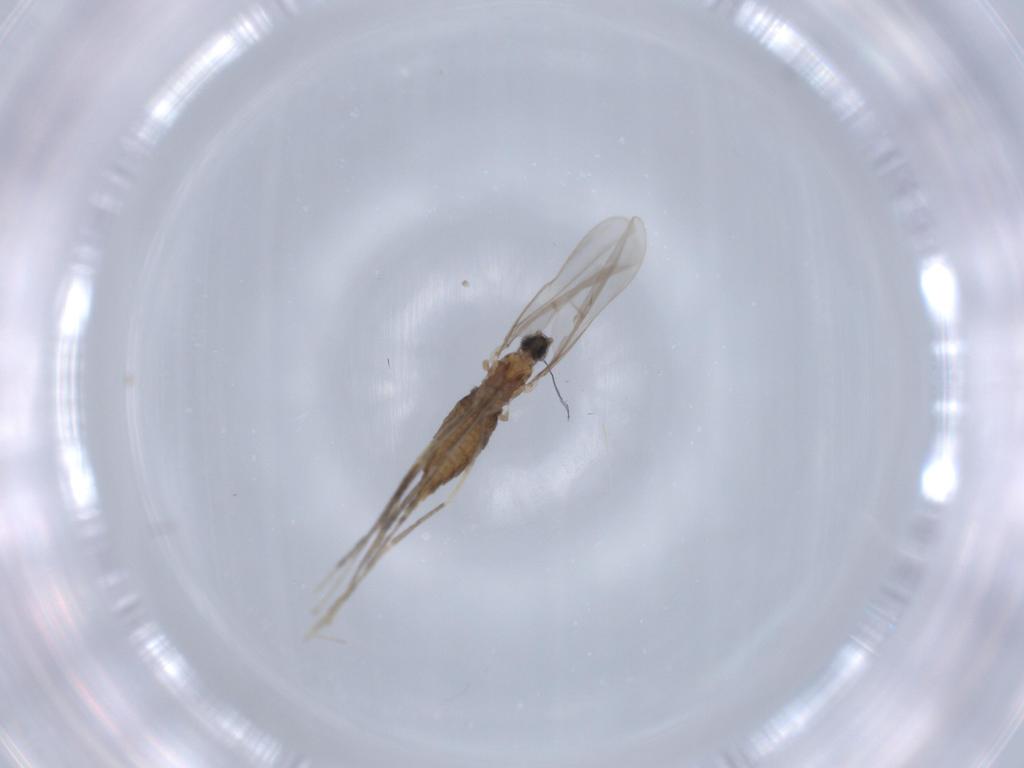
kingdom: Animalia
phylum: Arthropoda
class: Insecta
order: Diptera
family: Cecidomyiidae
